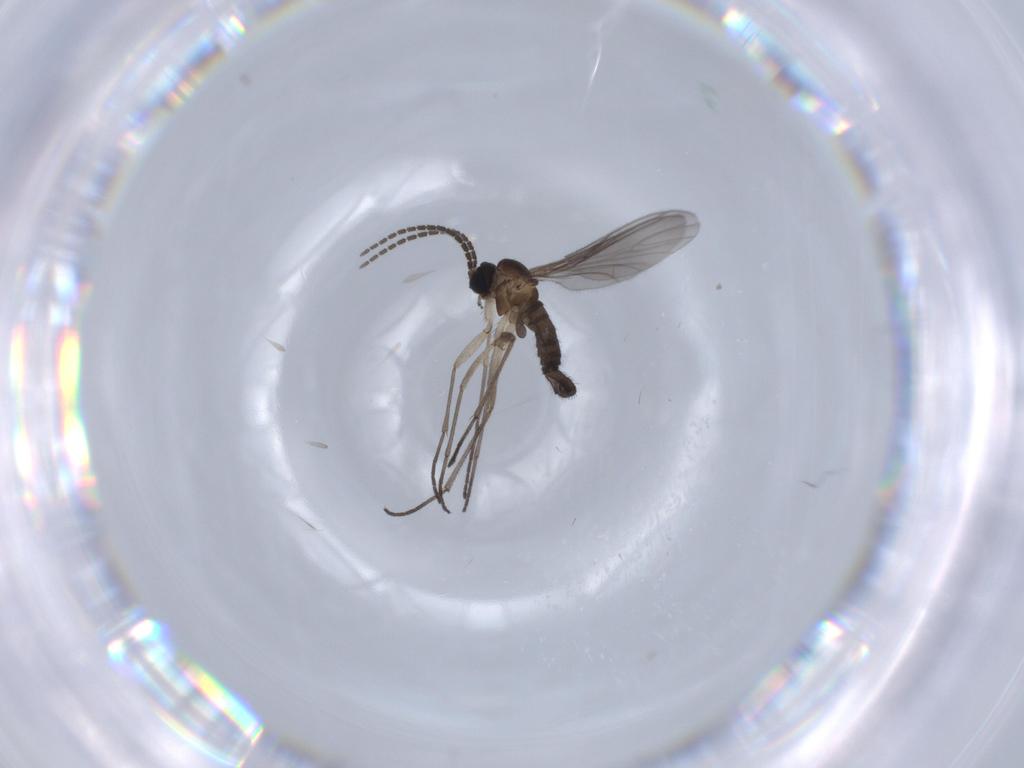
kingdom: Animalia
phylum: Arthropoda
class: Insecta
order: Diptera
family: Sciaridae
